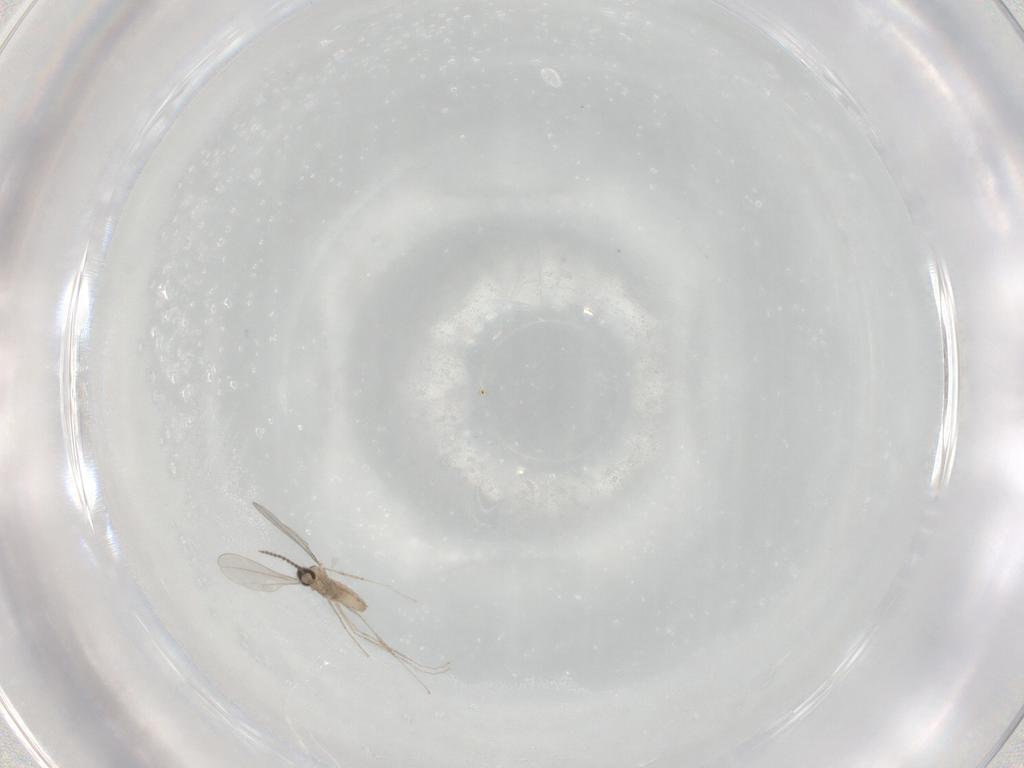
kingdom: Animalia
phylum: Arthropoda
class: Insecta
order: Diptera
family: Cecidomyiidae
